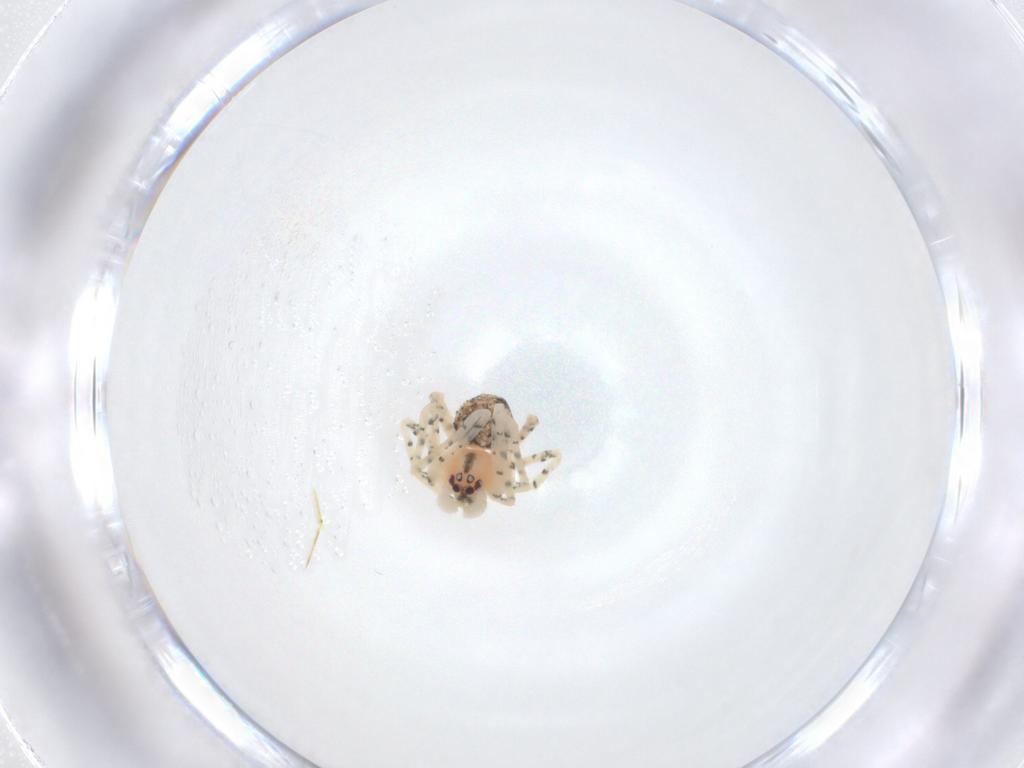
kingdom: Animalia
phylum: Arthropoda
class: Arachnida
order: Araneae
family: Theridiidae
